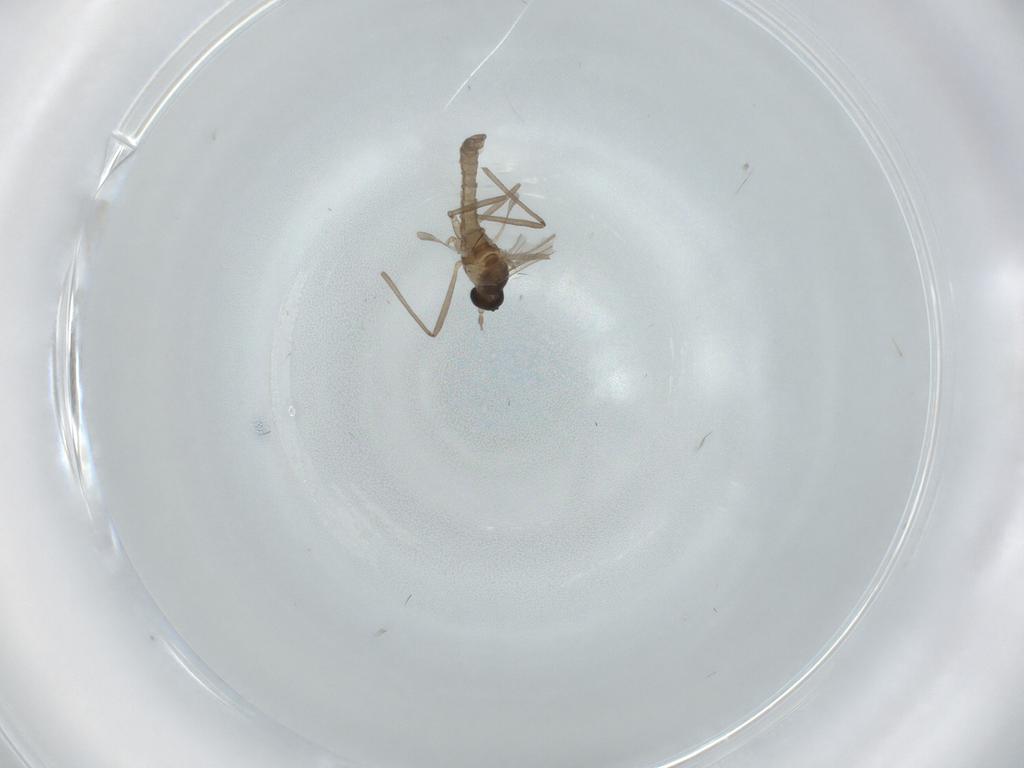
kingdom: Animalia
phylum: Arthropoda
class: Insecta
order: Diptera
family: Cecidomyiidae
